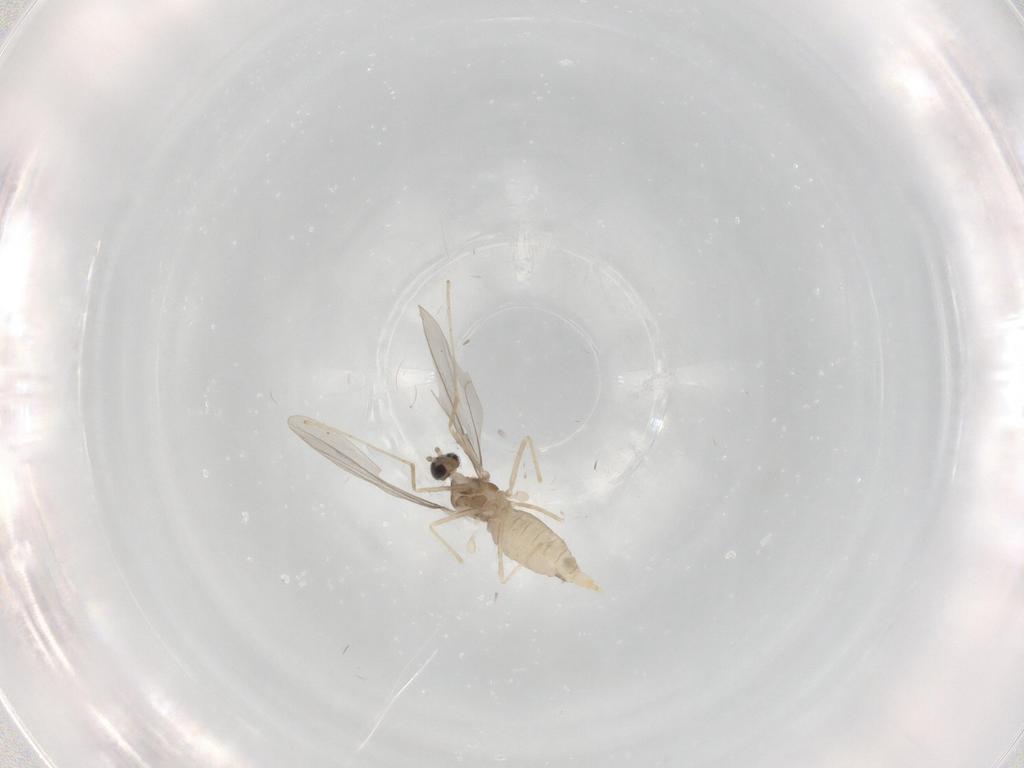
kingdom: Animalia
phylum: Arthropoda
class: Insecta
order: Diptera
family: Cecidomyiidae
